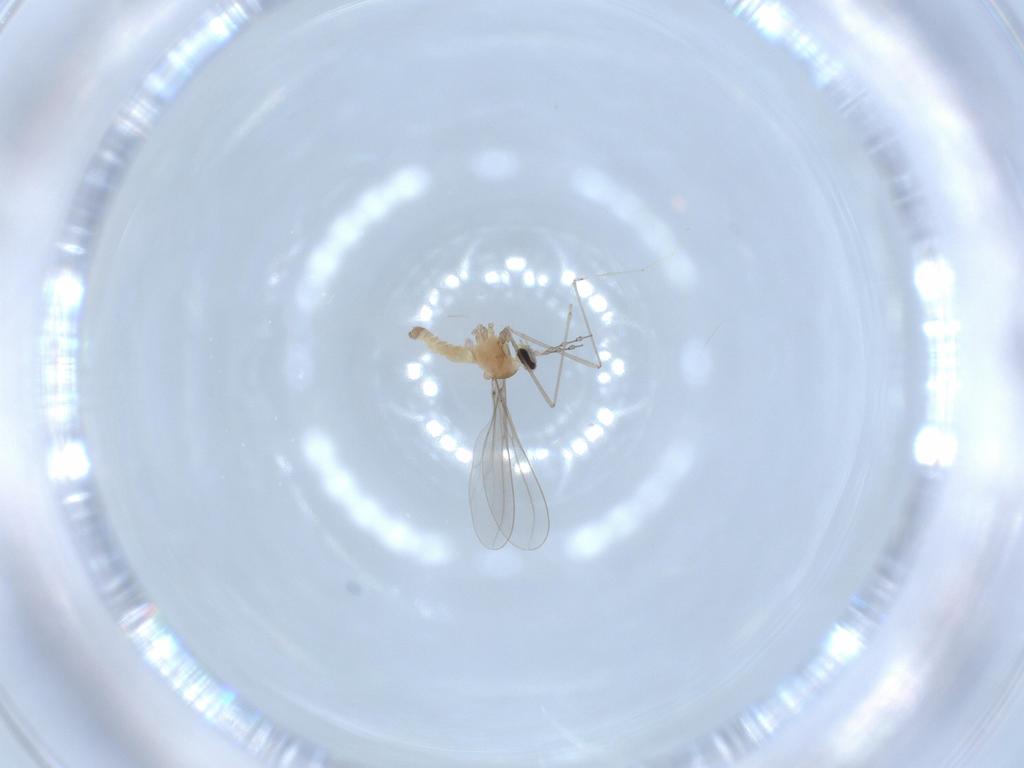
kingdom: Animalia
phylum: Arthropoda
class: Insecta
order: Diptera
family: Cecidomyiidae
